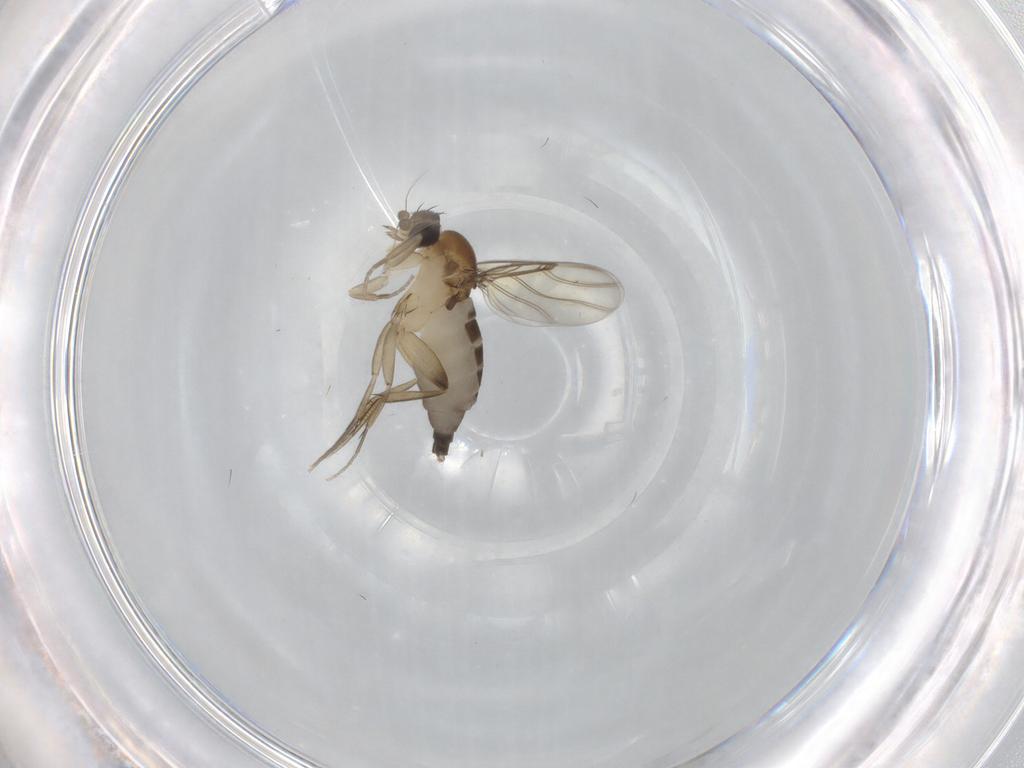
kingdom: Animalia
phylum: Arthropoda
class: Insecta
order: Diptera
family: Phoridae
